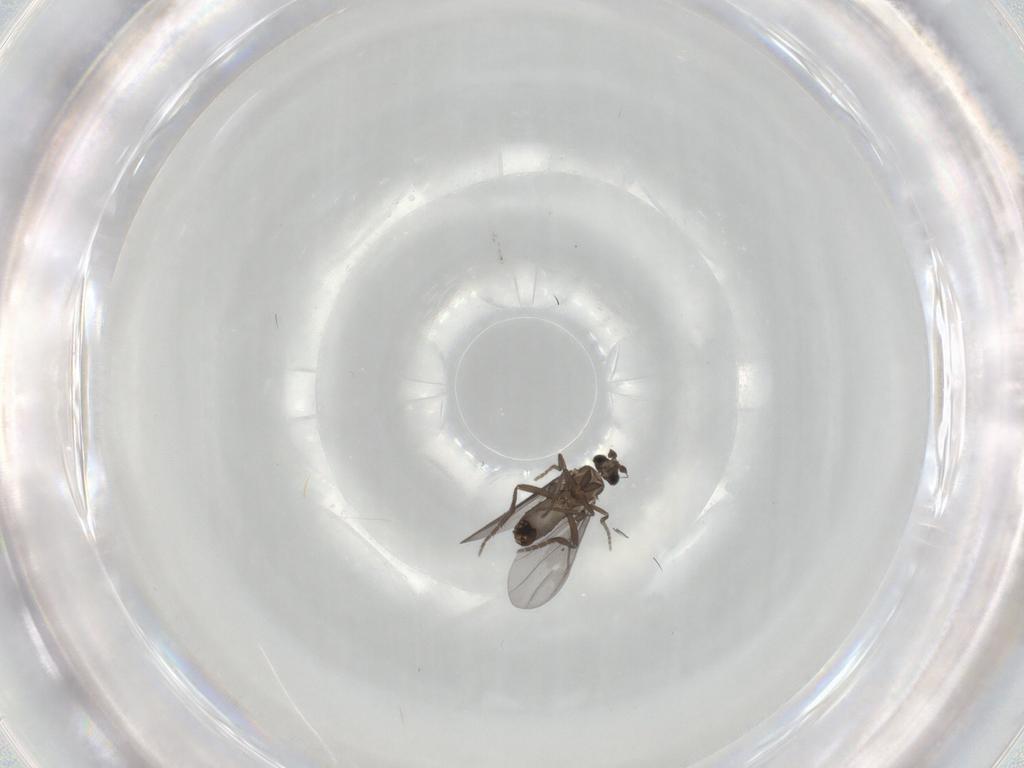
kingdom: Animalia
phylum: Arthropoda
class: Insecta
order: Diptera
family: Phoridae
